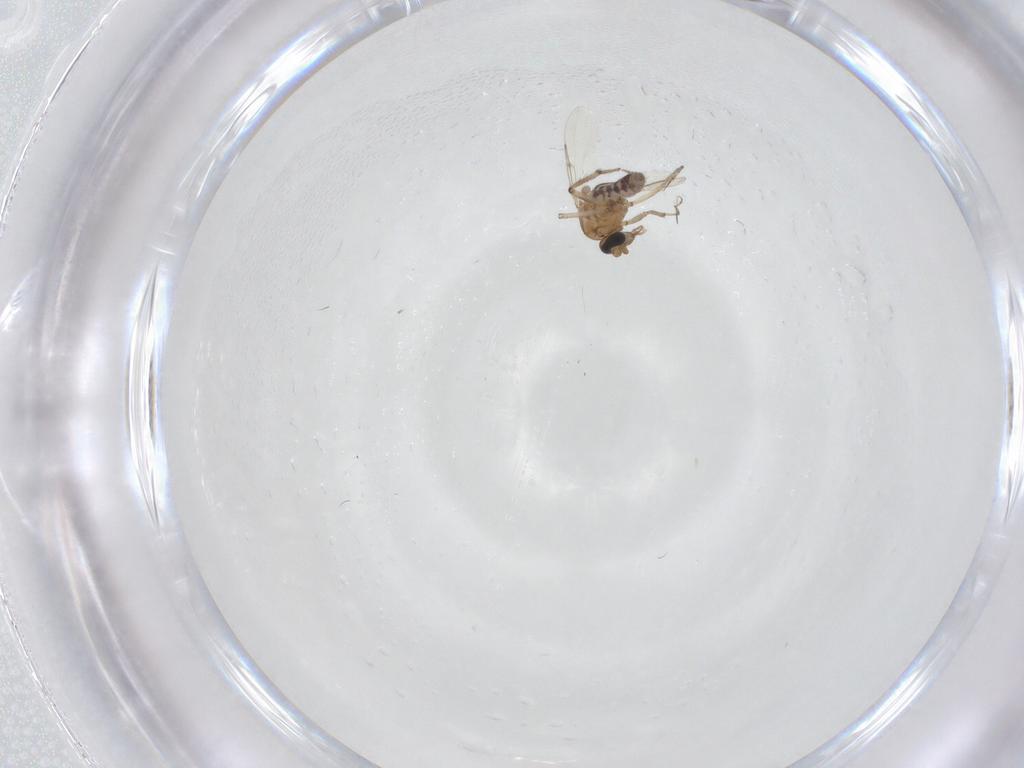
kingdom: Animalia
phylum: Arthropoda
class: Insecta
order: Diptera
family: Ceratopogonidae
